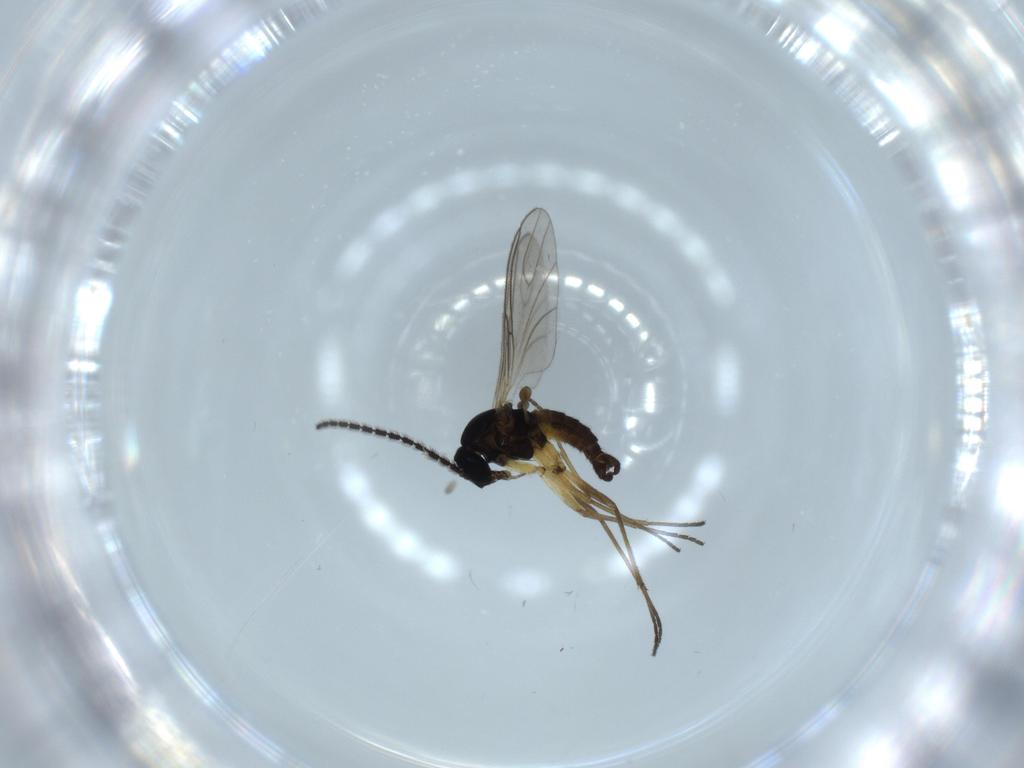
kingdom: Animalia
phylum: Arthropoda
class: Insecta
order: Diptera
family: Sciaridae
